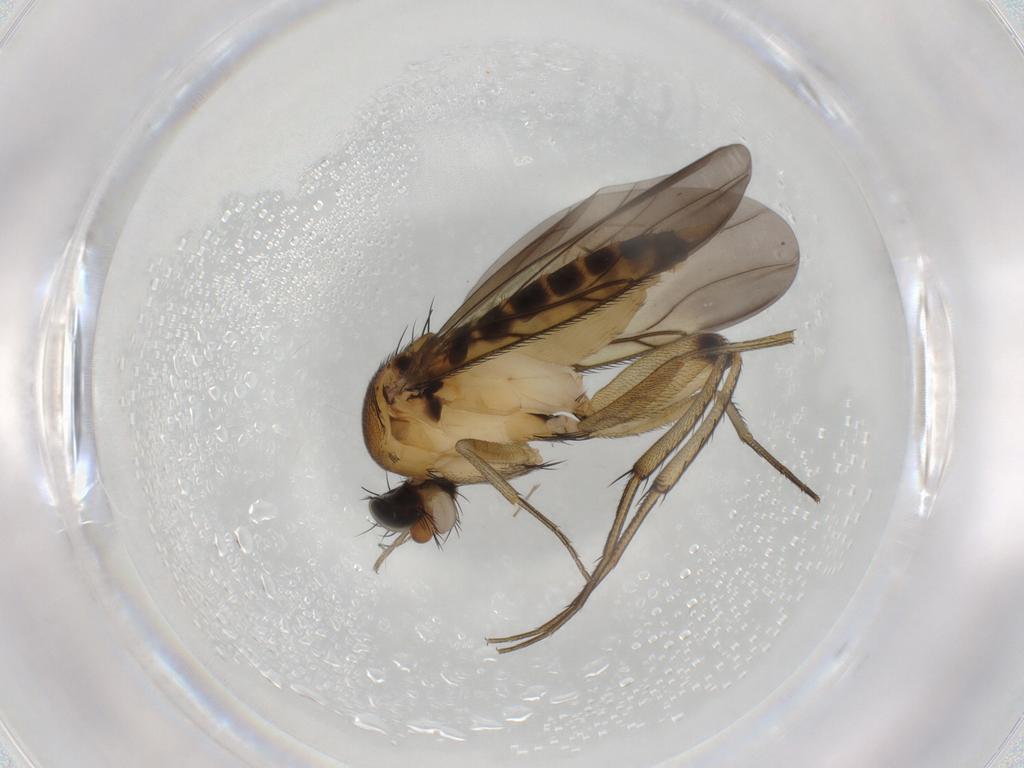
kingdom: Animalia
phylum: Arthropoda
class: Insecta
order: Diptera
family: Phoridae
